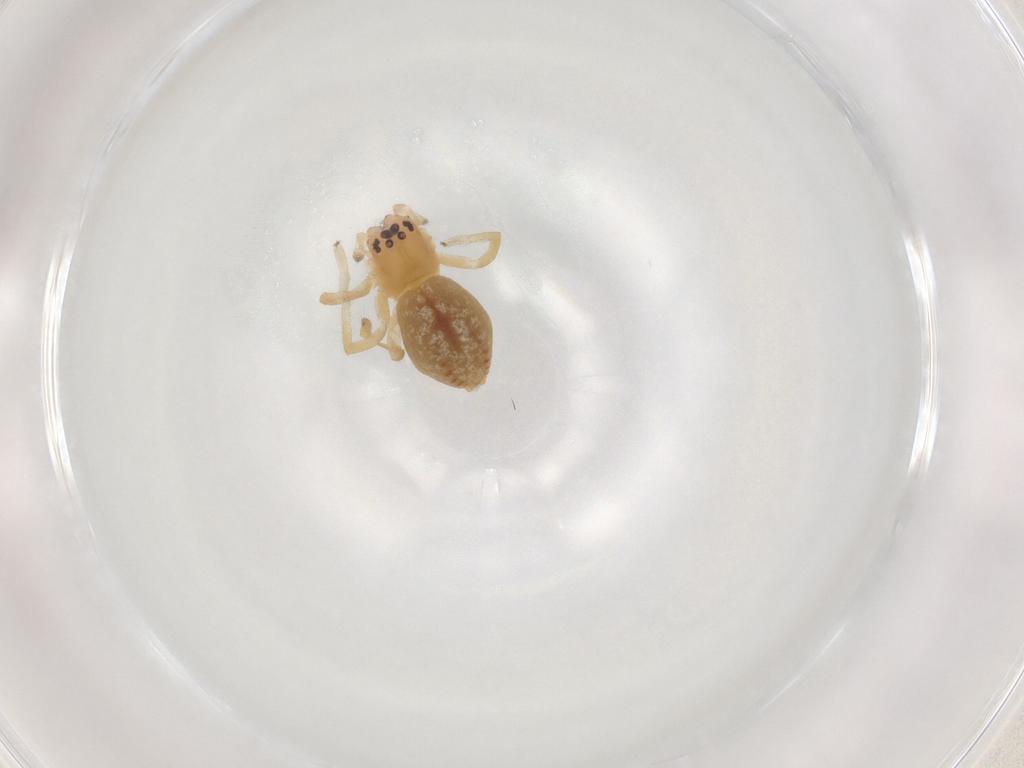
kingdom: Animalia
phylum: Arthropoda
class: Arachnida
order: Araneae
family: Cheiracanthiidae
